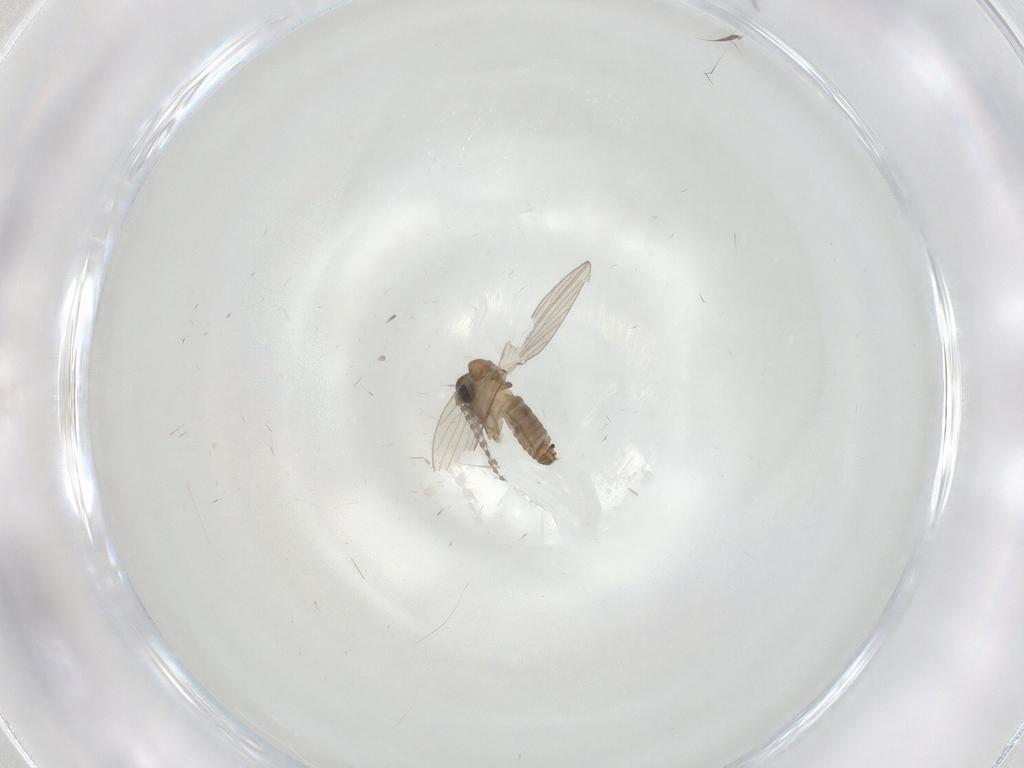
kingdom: Animalia
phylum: Arthropoda
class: Insecta
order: Diptera
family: Psychodidae
